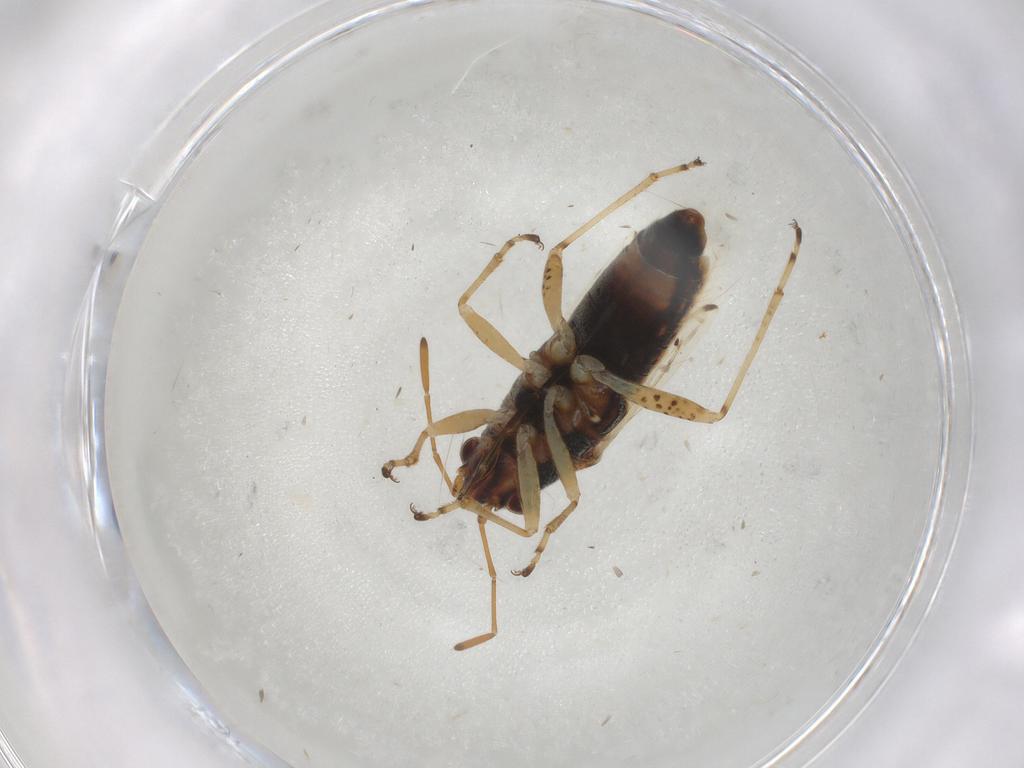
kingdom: Animalia
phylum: Arthropoda
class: Insecta
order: Hemiptera
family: Lygaeidae
